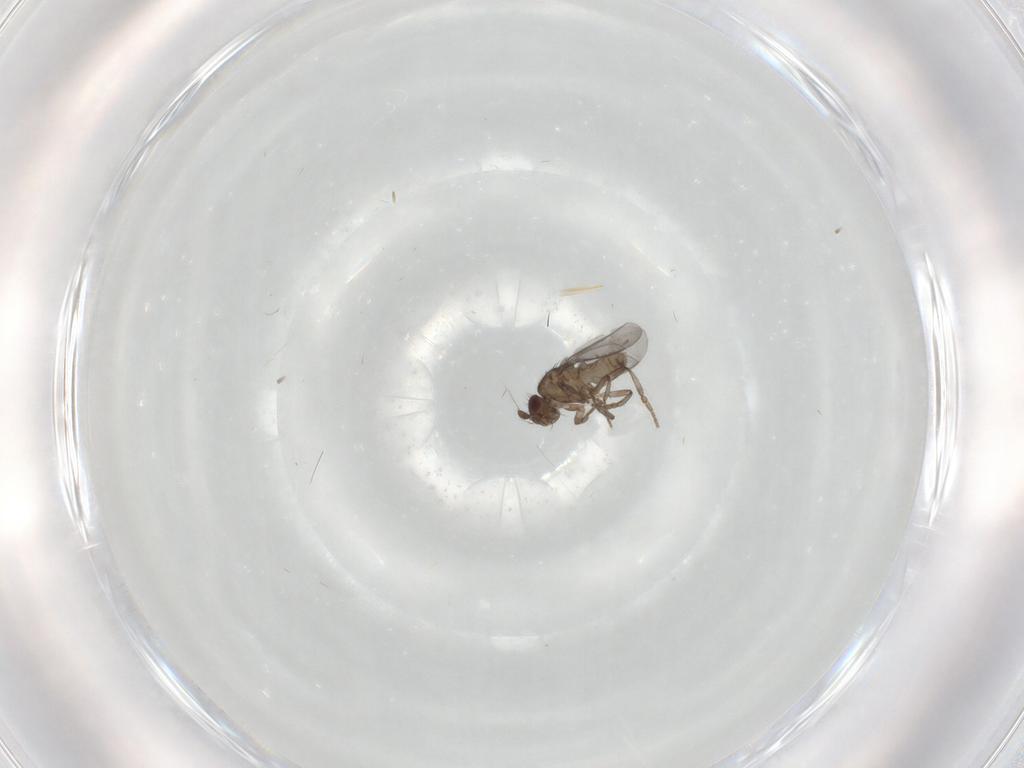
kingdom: Animalia
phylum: Arthropoda
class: Insecta
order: Diptera
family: Sphaeroceridae
